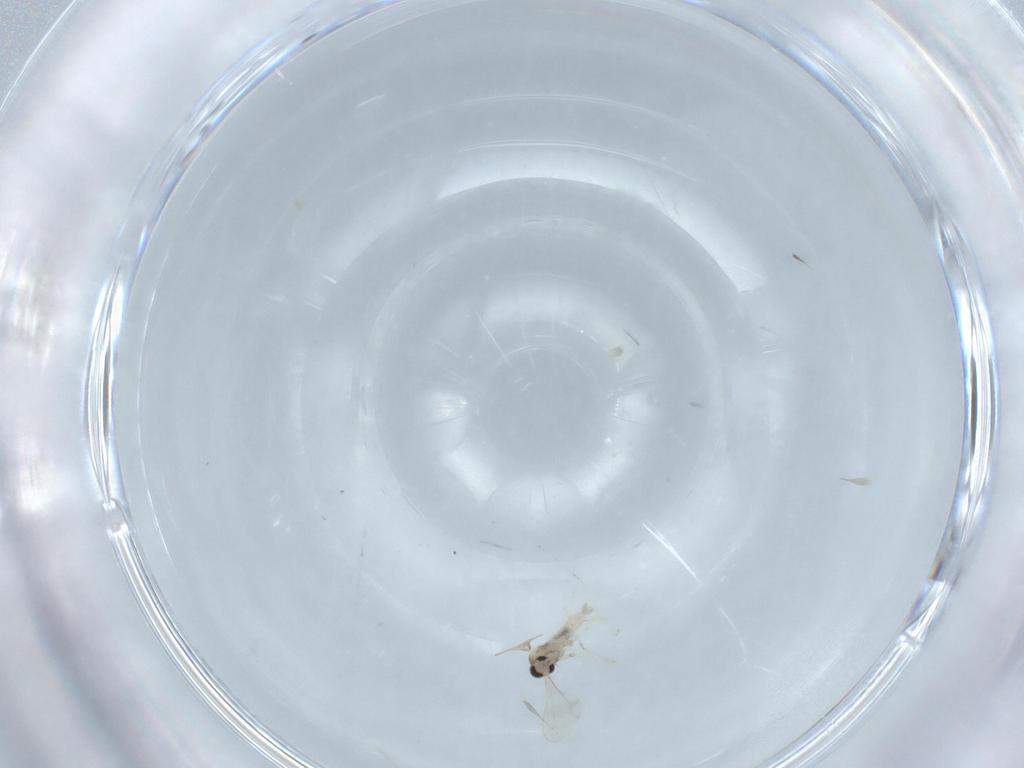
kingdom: Animalia
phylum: Arthropoda
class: Insecta
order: Diptera
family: Cecidomyiidae
